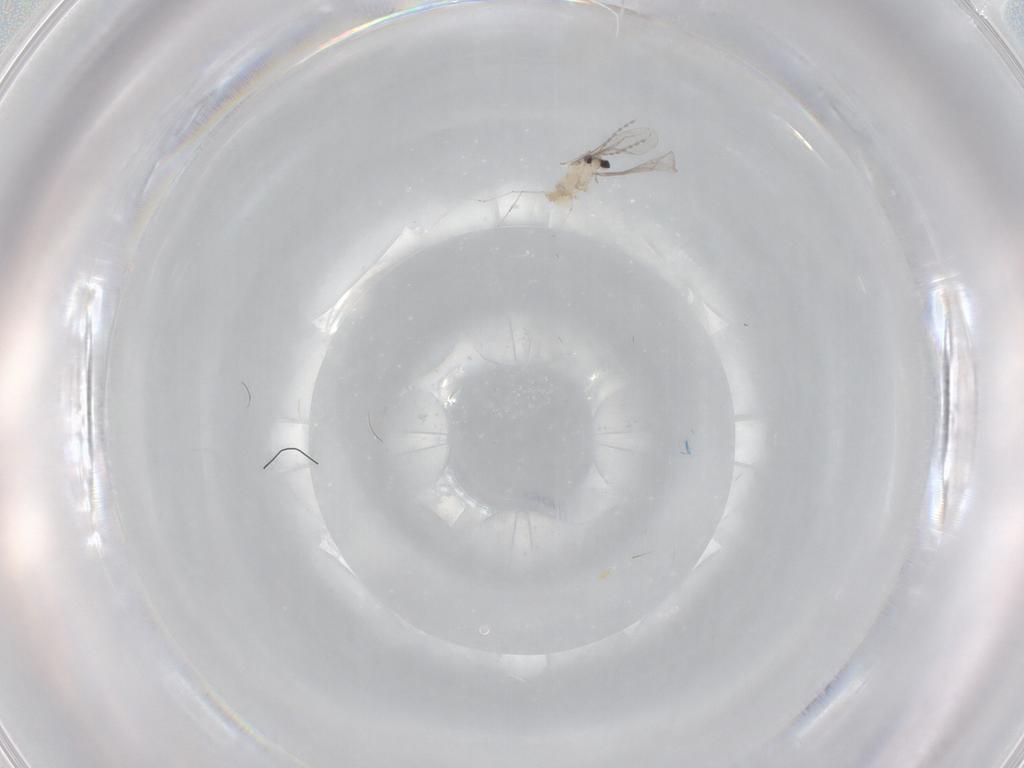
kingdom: Animalia
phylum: Arthropoda
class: Insecta
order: Diptera
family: Cecidomyiidae
